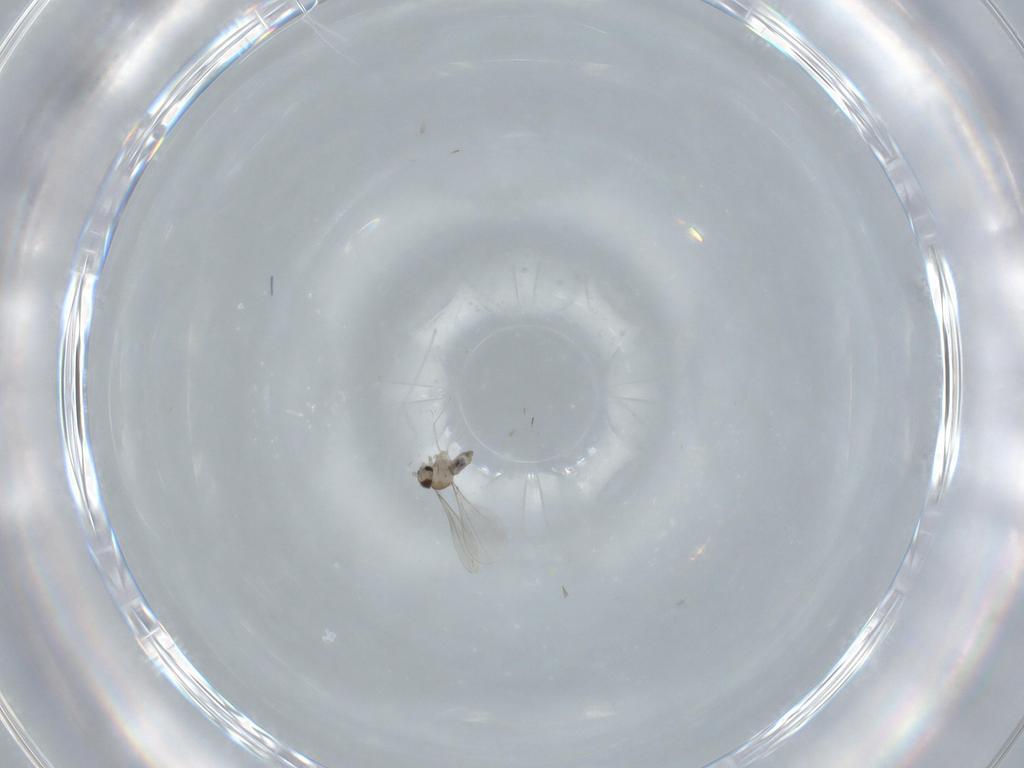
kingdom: Animalia
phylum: Arthropoda
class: Insecta
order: Diptera
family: Cecidomyiidae
